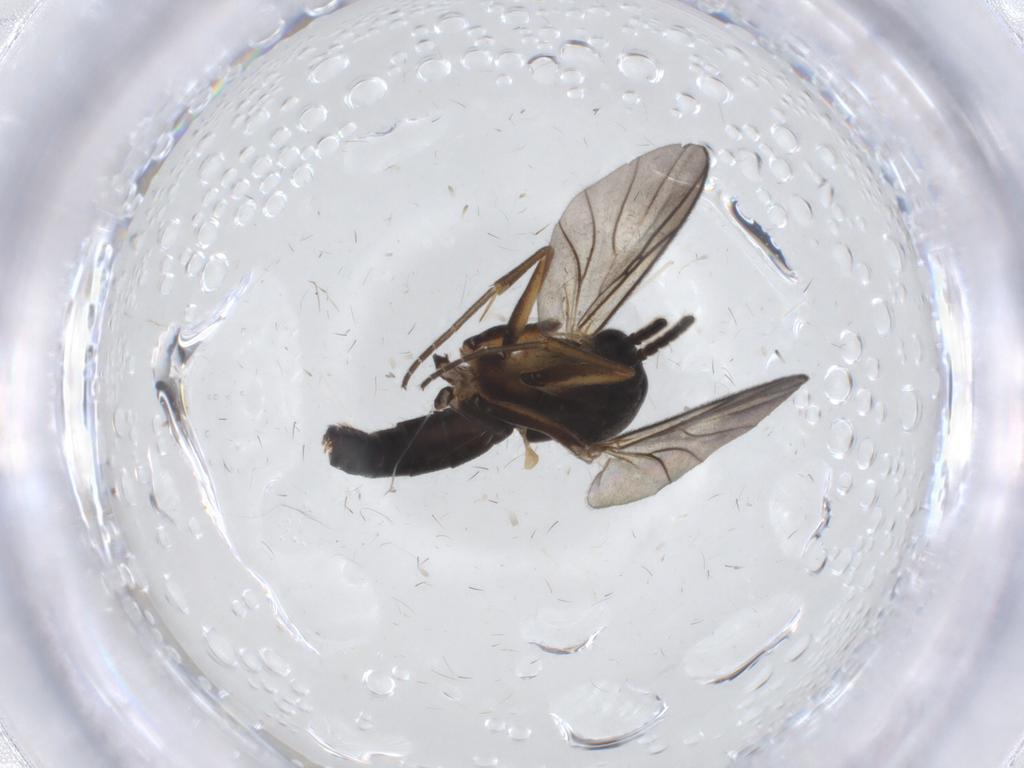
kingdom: Animalia
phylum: Arthropoda
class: Insecta
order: Diptera
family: Mycetophilidae
